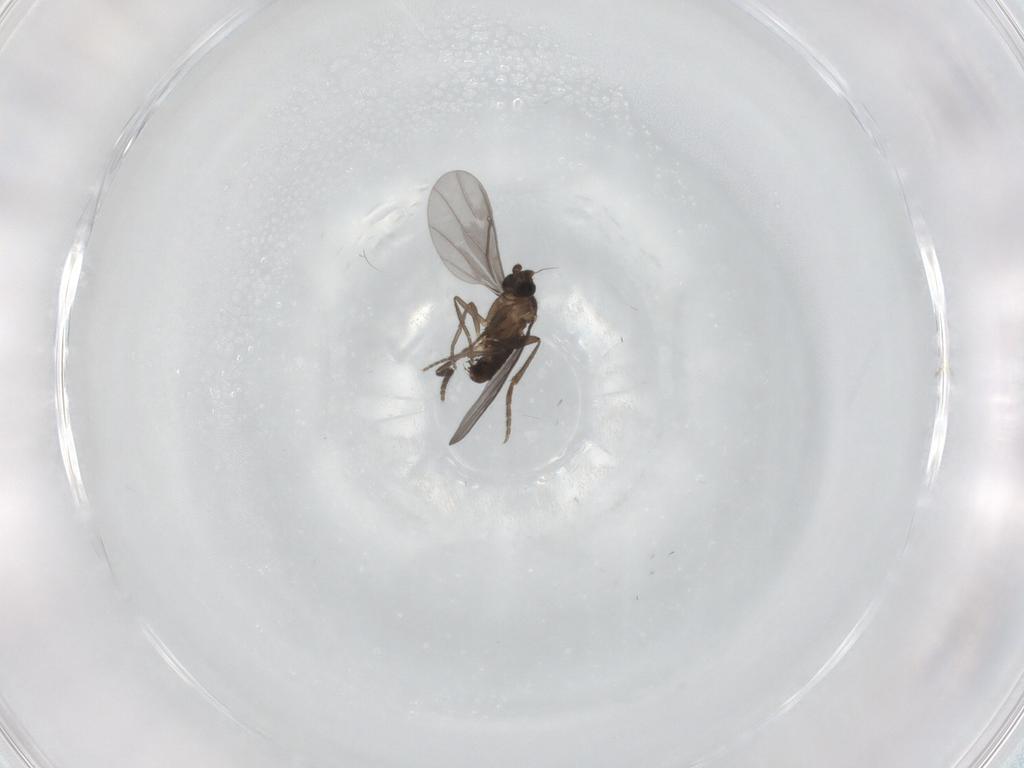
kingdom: Animalia
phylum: Arthropoda
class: Insecta
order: Diptera
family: Phoridae
